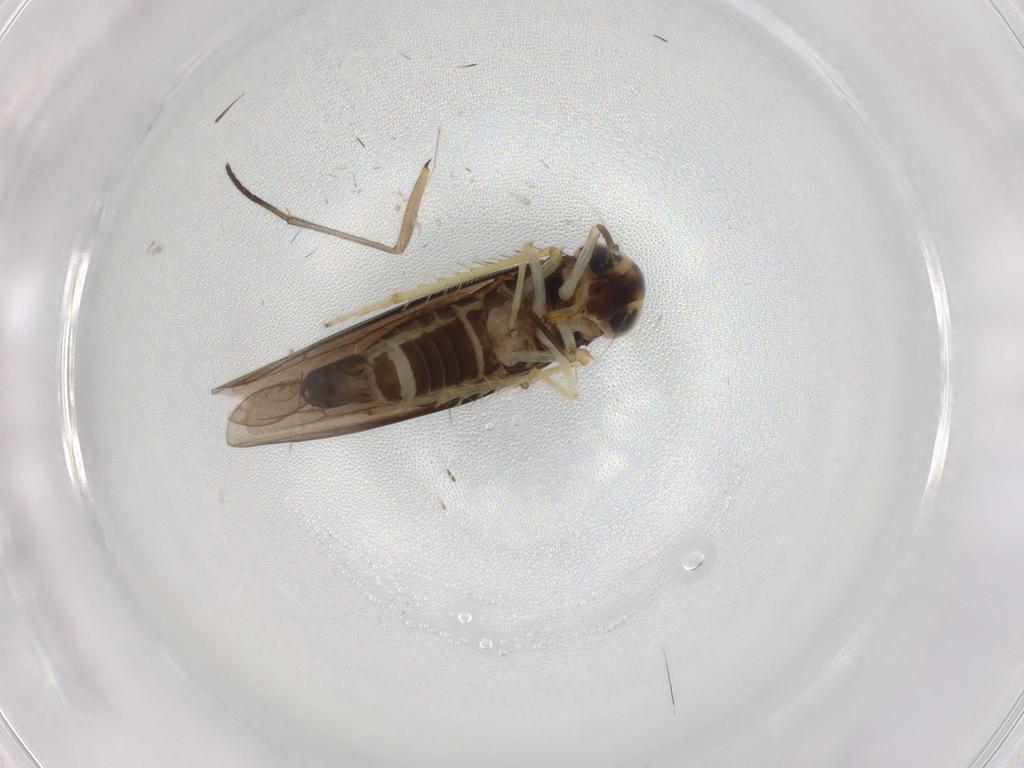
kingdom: Animalia
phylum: Arthropoda
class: Insecta
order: Hemiptera
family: Cicadellidae
